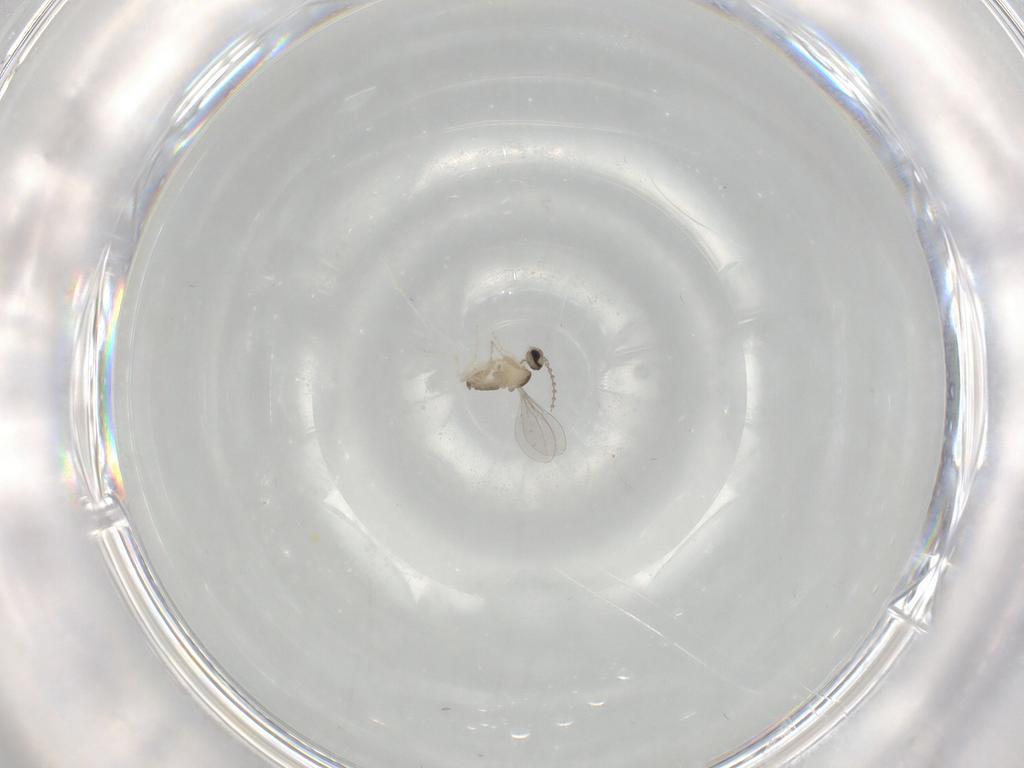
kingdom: Animalia
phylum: Arthropoda
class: Insecta
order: Diptera
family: Cecidomyiidae
